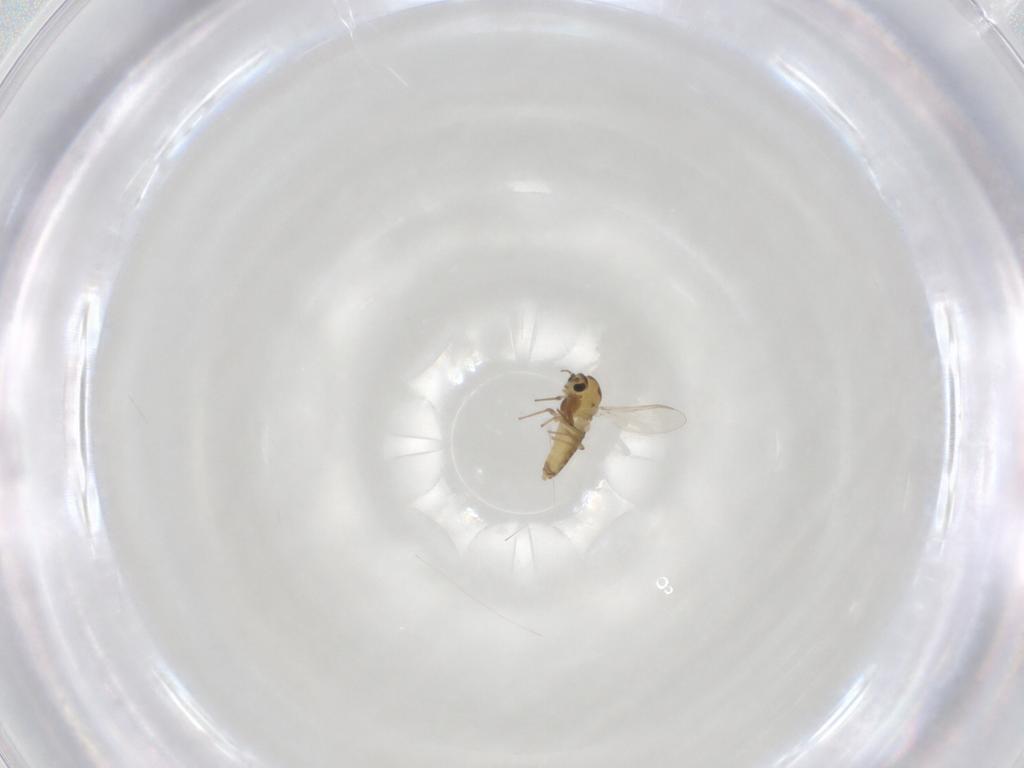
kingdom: Animalia
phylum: Arthropoda
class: Insecta
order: Diptera
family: Chironomidae
